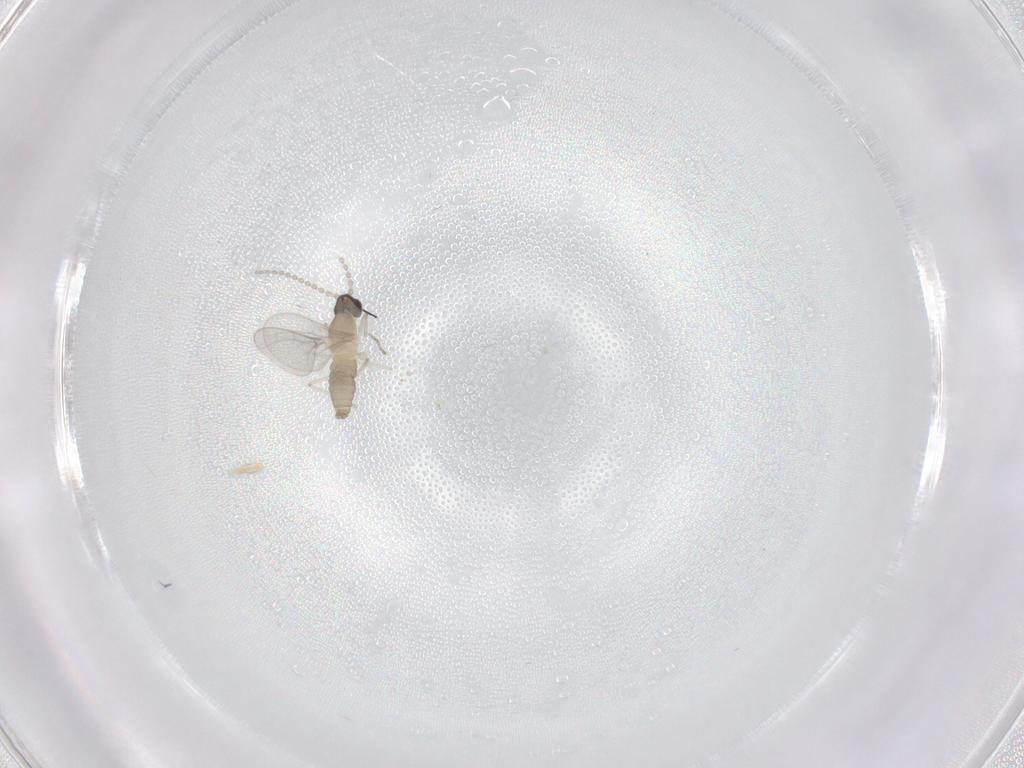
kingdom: Animalia
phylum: Arthropoda
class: Insecta
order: Diptera
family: Chironomidae
